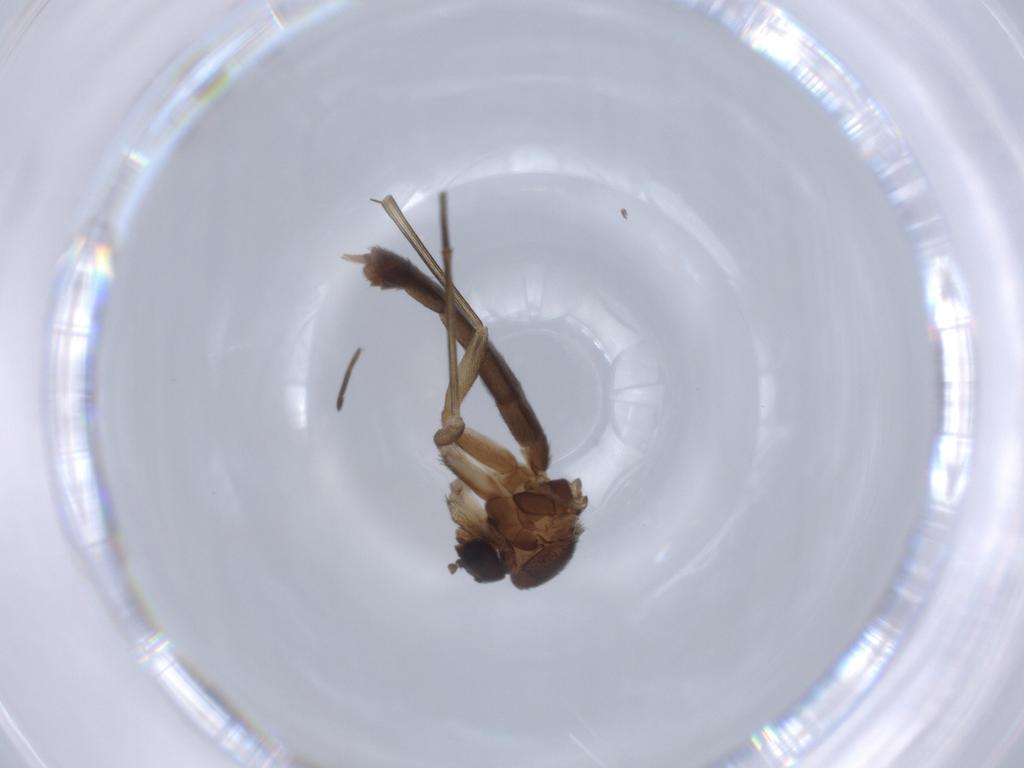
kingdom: Animalia
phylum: Arthropoda
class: Insecta
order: Diptera
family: Keroplatidae
